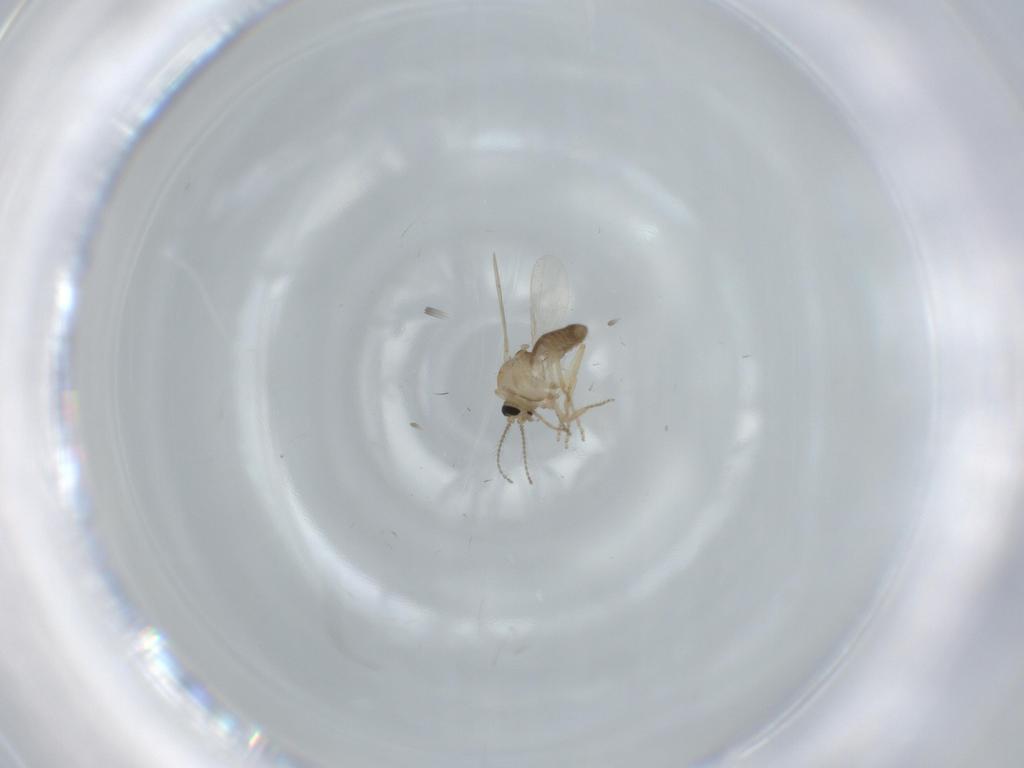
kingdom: Animalia
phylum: Arthropoda
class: Insecta
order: Diptera
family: Ceratopogonidae
